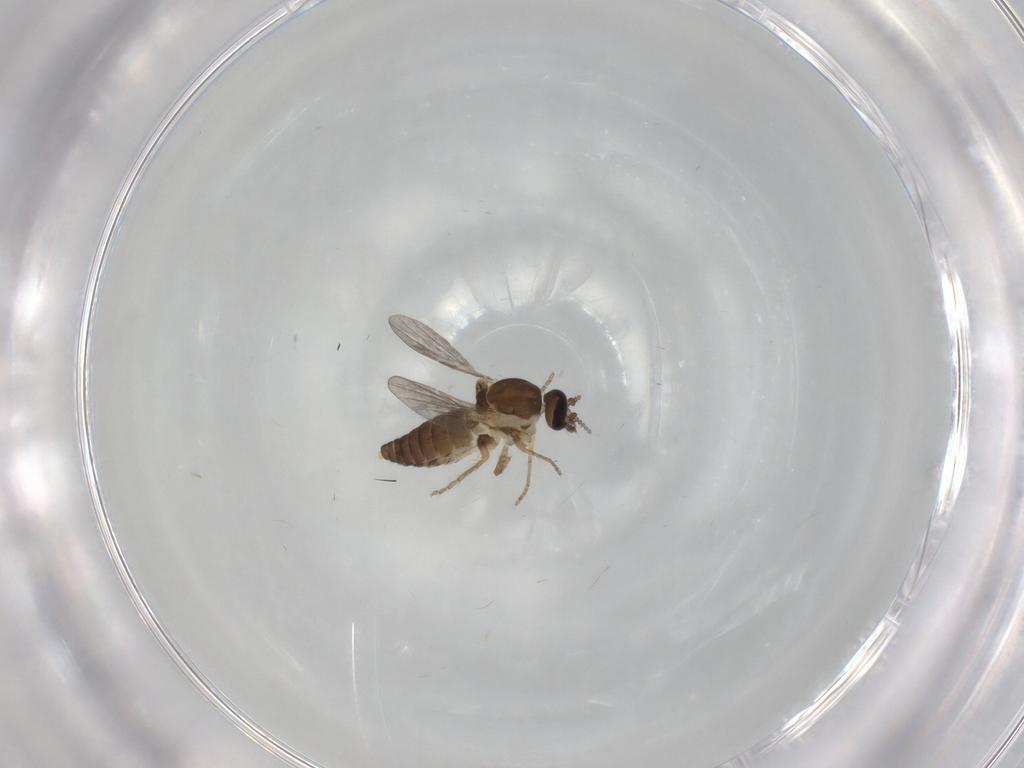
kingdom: Animalia
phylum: Arthropoda
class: Insecta
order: Diptera
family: Ceratopogonidae
